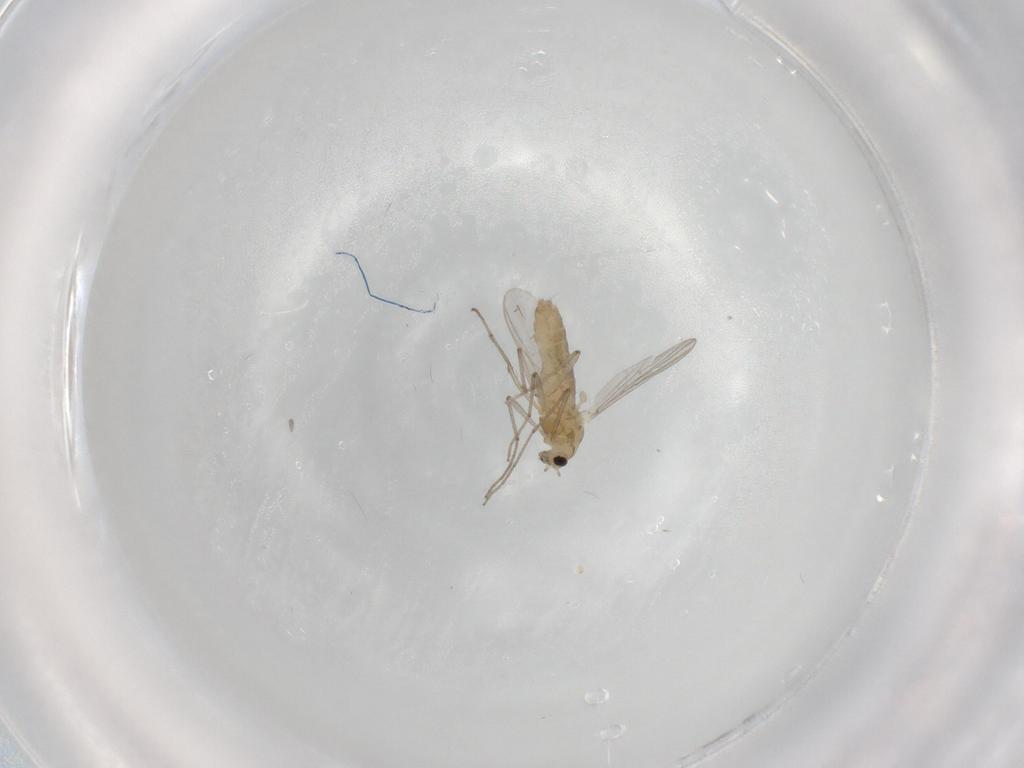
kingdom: Animalia
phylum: Arthropoda
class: Insecta
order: Diptera
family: Chironomidae
